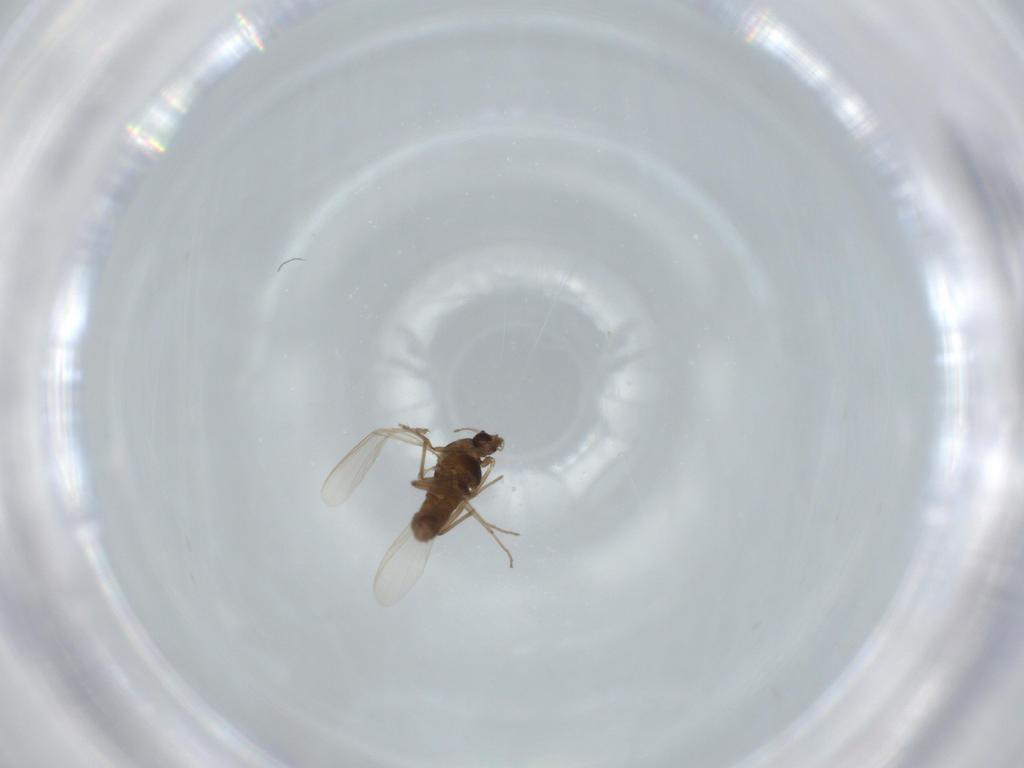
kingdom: Animalia
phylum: Arthropoda
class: Insecta
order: Diptera
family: Chironomidae
